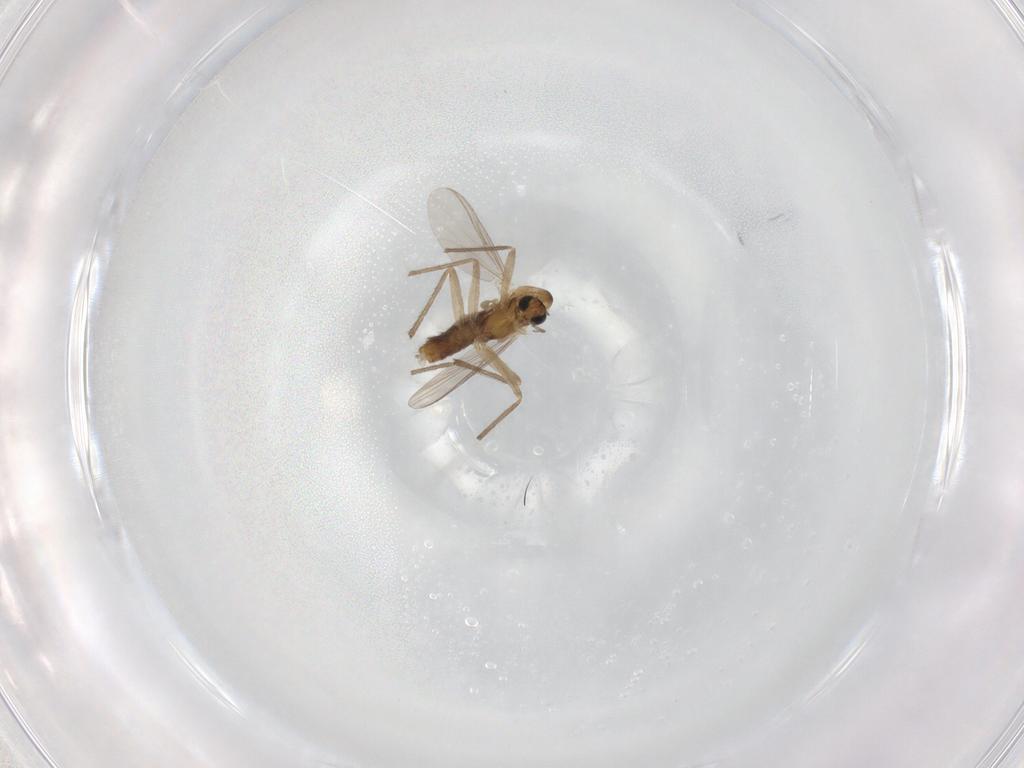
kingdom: Animalia
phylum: Arthropoda
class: Insecta
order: Diptera
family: Chironomidae
